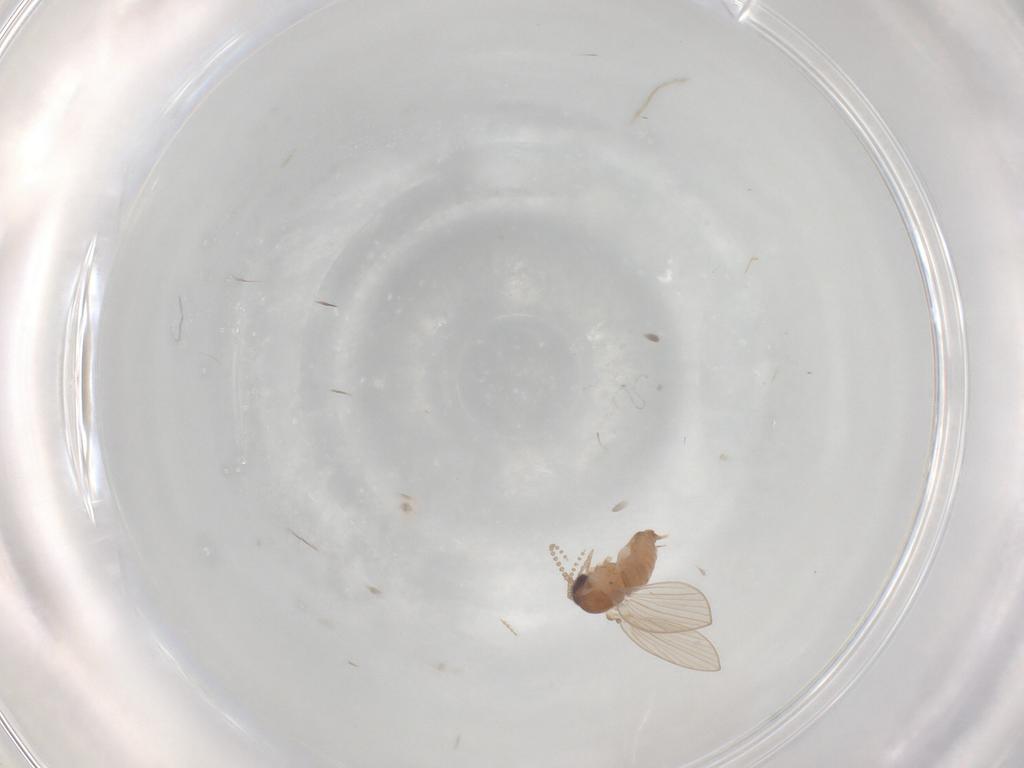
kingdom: Animalia
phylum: Arthropoda
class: Insecta
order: Diptera
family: Psychodidae
